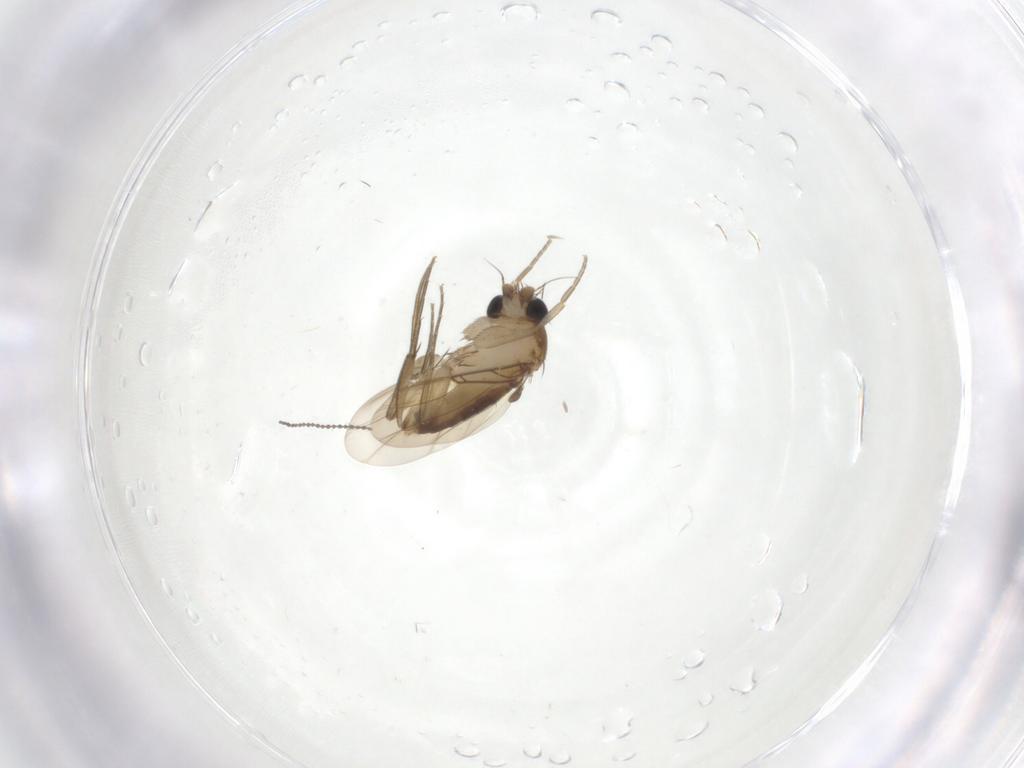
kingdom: Animalia
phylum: Arthropoda
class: Insecta
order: Diptera
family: Cecidomyiidae
